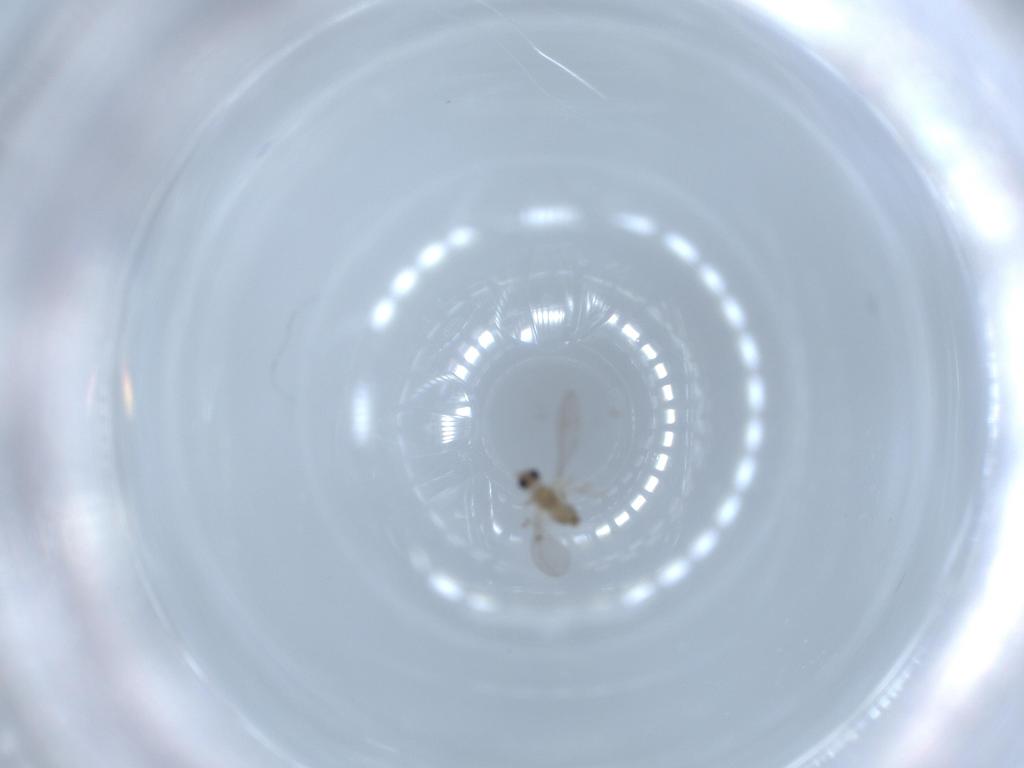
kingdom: Animalia
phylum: Arthropoda
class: Insecta
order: Diptera
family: Cecidomyiidae
